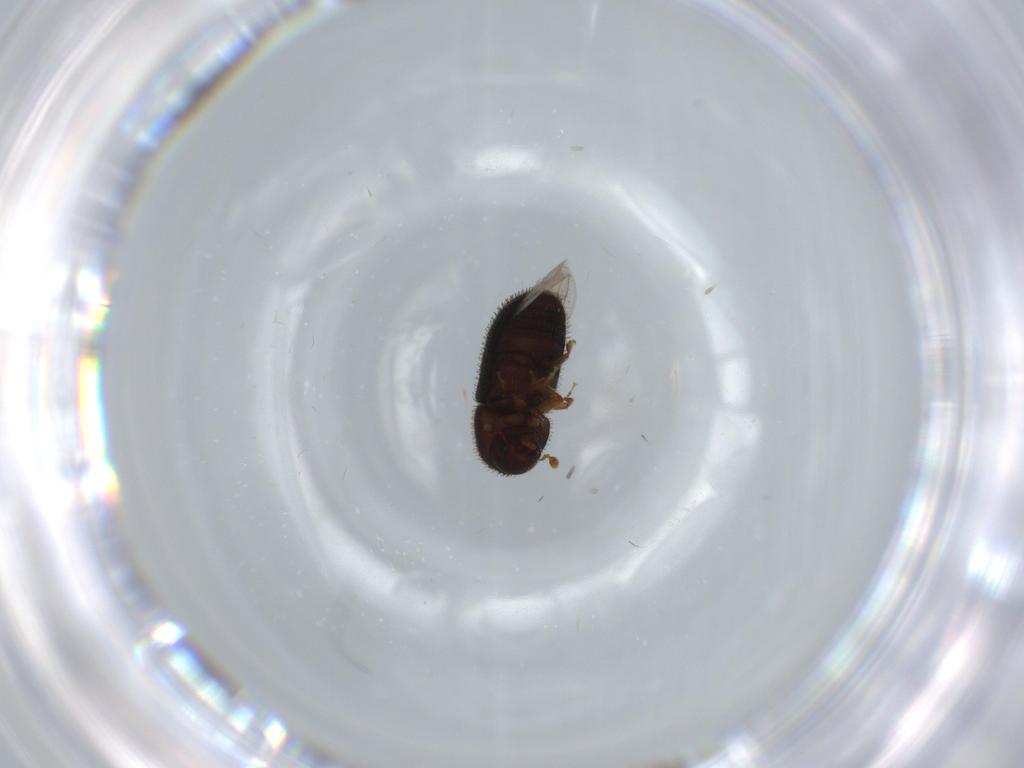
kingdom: Animalia
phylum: Arthropoda
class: Insecta
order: Coleoptera
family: Curculionidae
